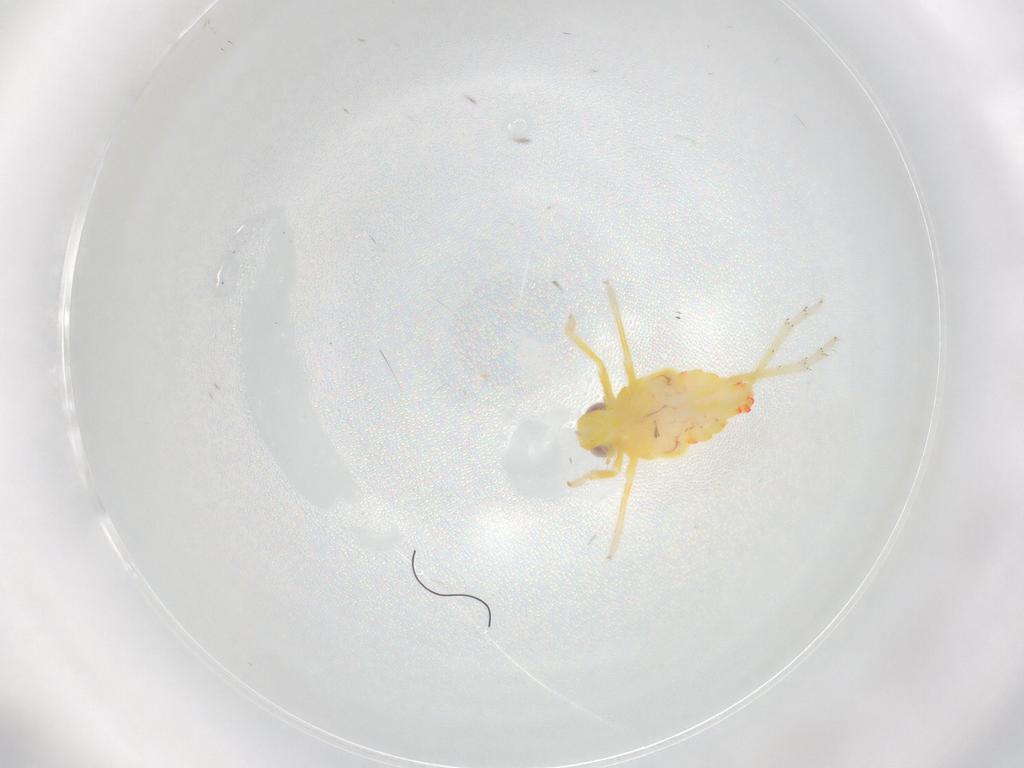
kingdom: Animalia
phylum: Arthropoda
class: Insecta
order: Hemiptera
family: Tropiduchidae
